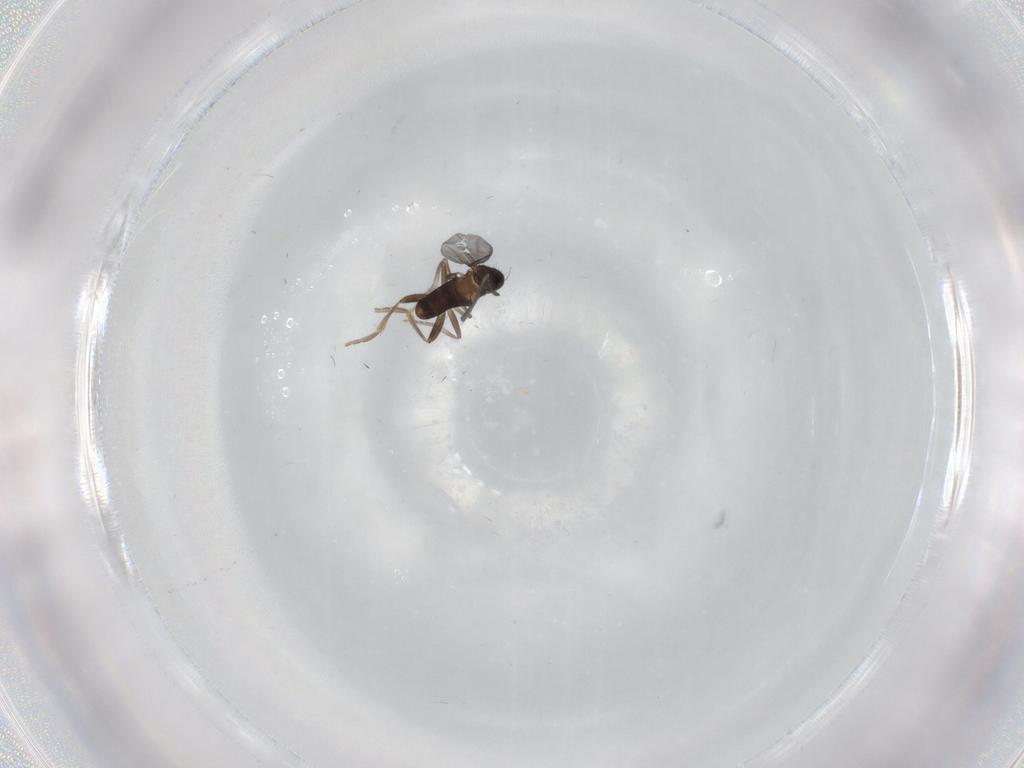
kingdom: Animalia
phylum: Arthropoda
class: Insecta
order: Diptera
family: Cecidomyiidae
